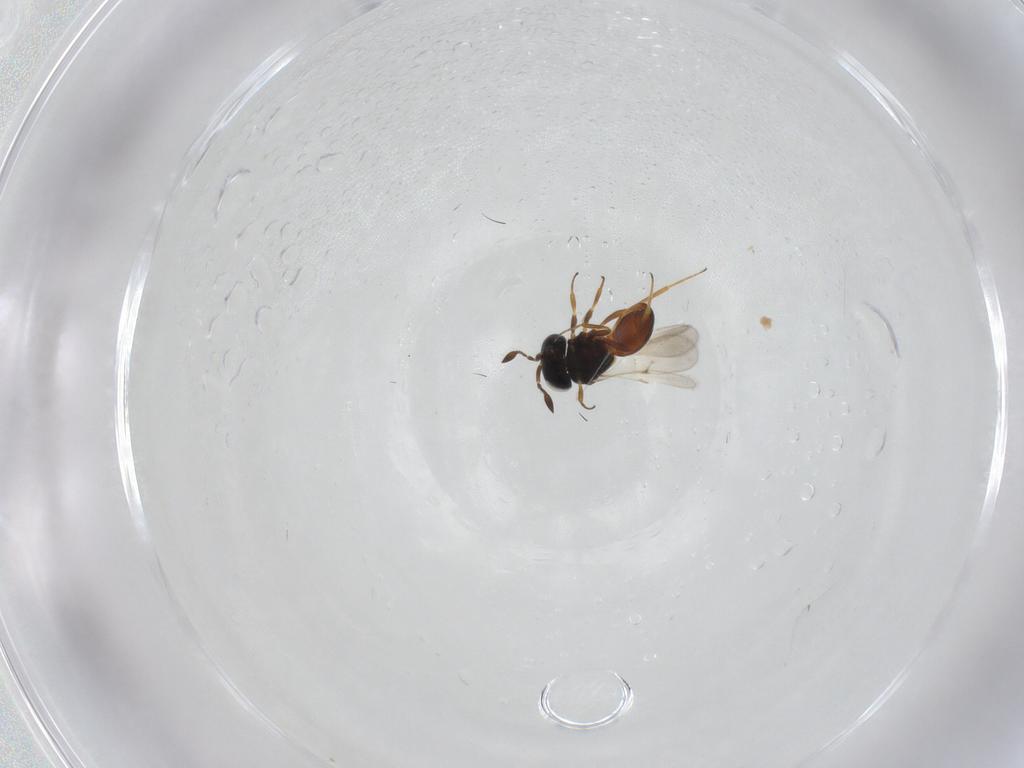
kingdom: Animalia
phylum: Arthropoda
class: Insecta
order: Hymenoptera
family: Scelionidae
